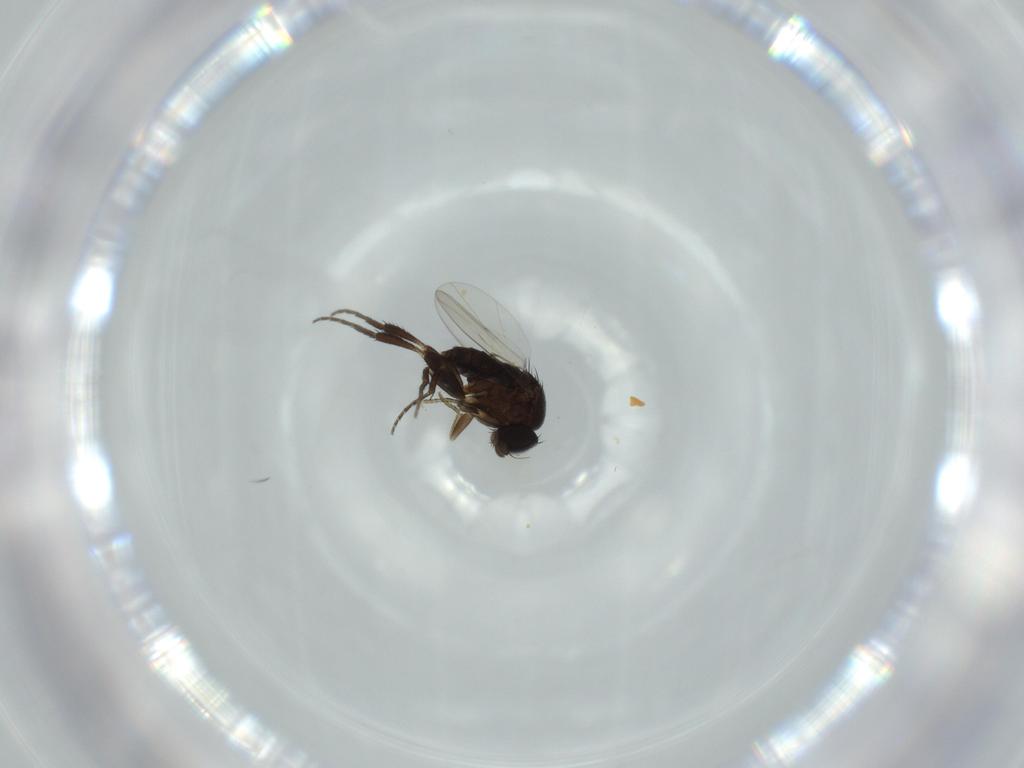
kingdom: Animalia
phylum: Arthropoda
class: Insecta
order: Diptera
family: Phoridae
